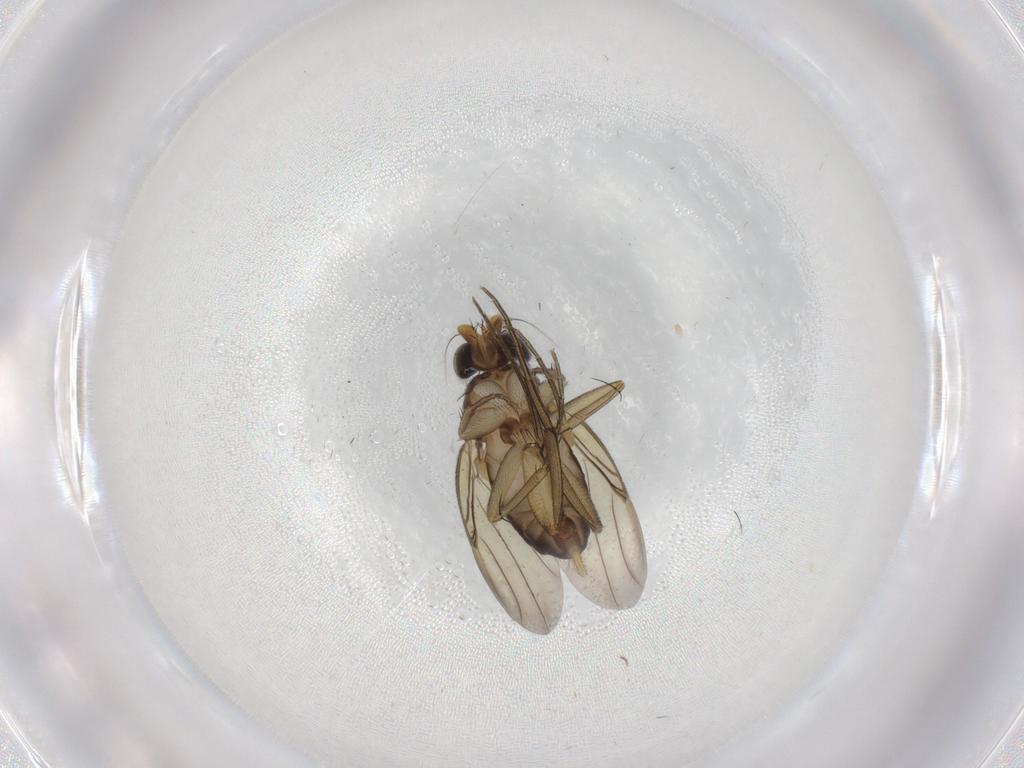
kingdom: Animalia
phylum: Arthropoda
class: Insecta
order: Diptera
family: Phoridae
